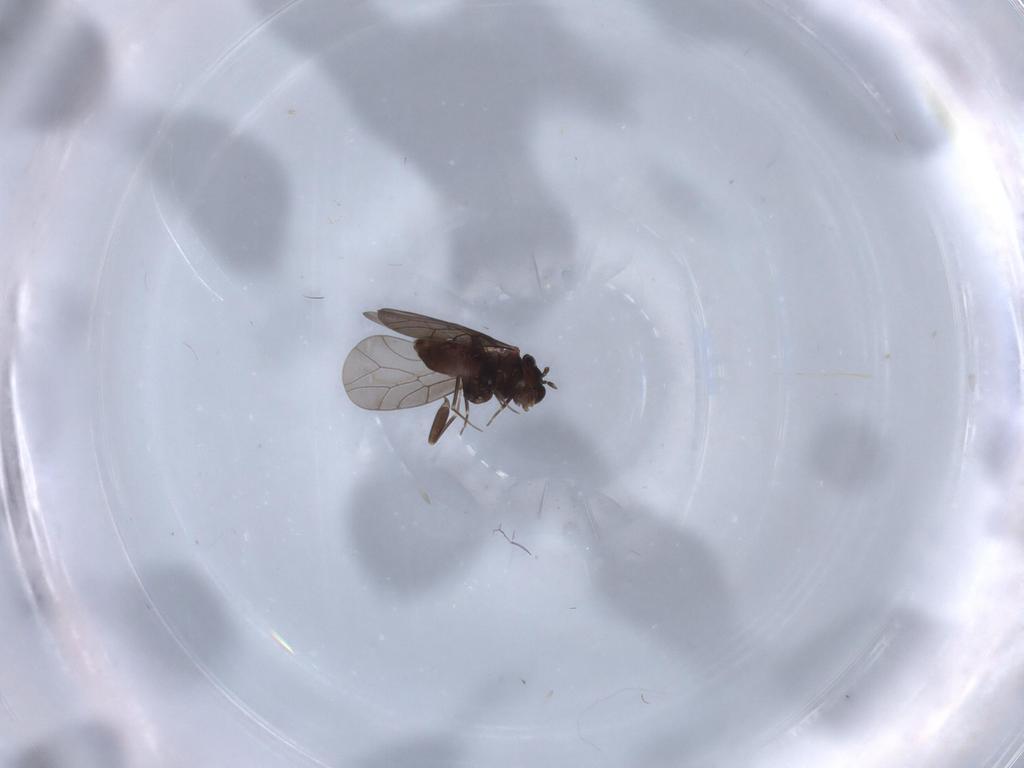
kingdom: Animalia
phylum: Arthropoda
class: Insecta
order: Psocodea
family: Lepidopsocidae
